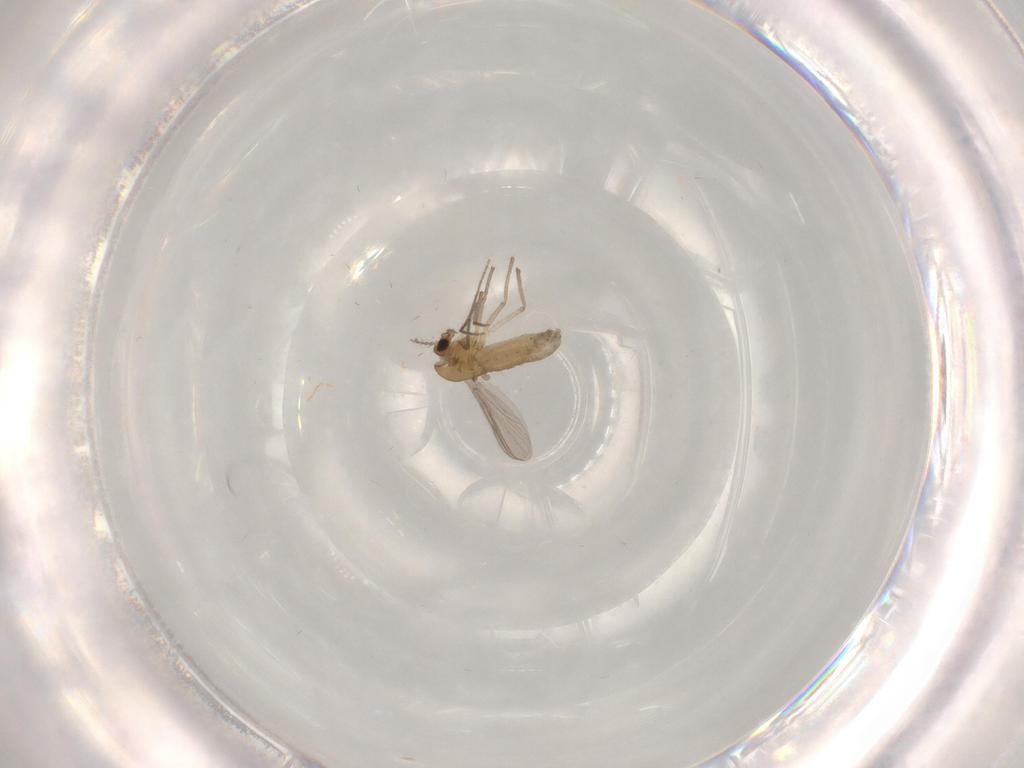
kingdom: Animalia
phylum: Arthropoda
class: Insecta
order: Diptera
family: Chironomidae
